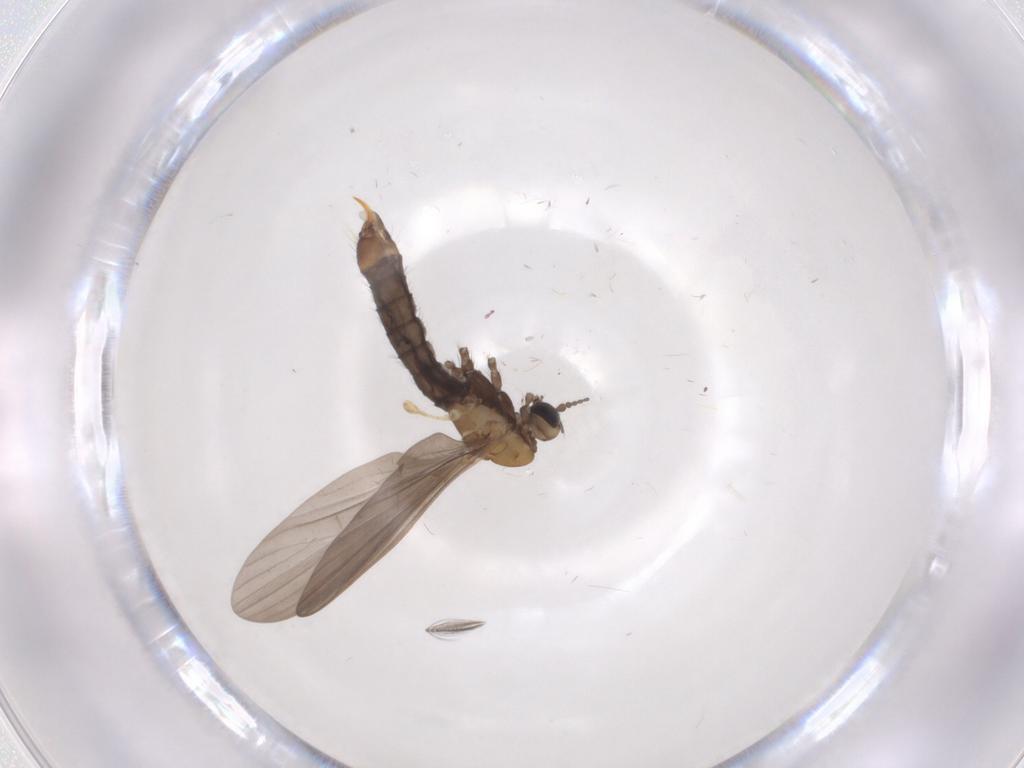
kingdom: Animalia
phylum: Arthropoda
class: Insecta
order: Diptera
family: Limoniidae
